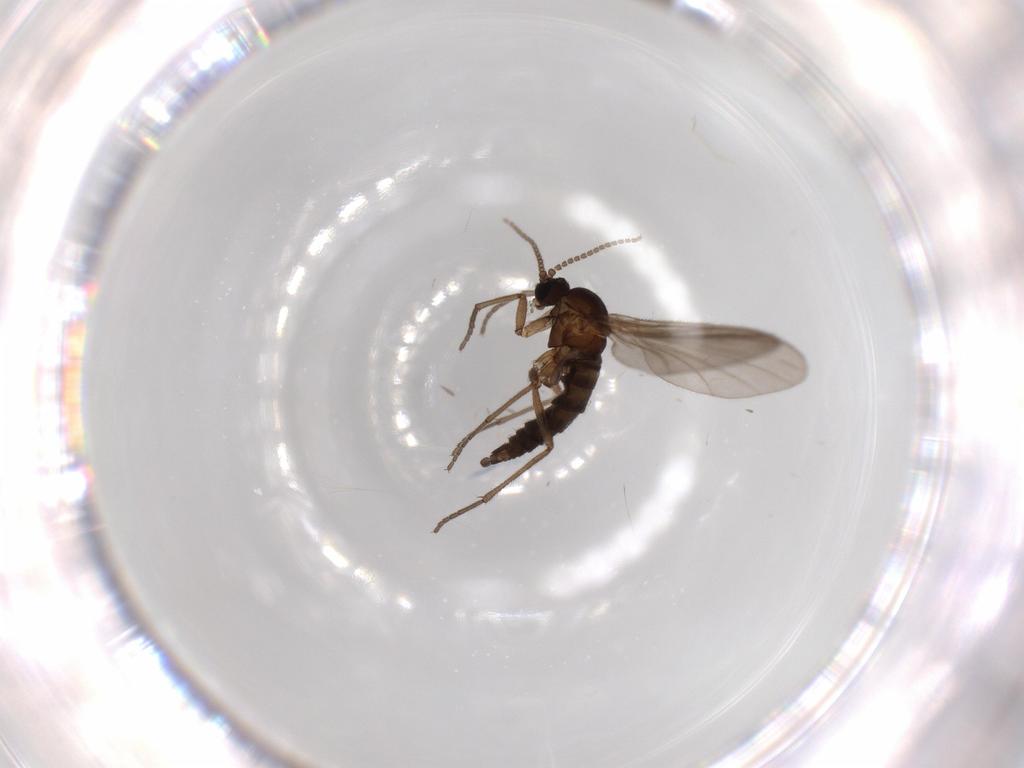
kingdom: Animalia
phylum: Arthropoda
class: Insecta
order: Diptera
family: Sciaridae
